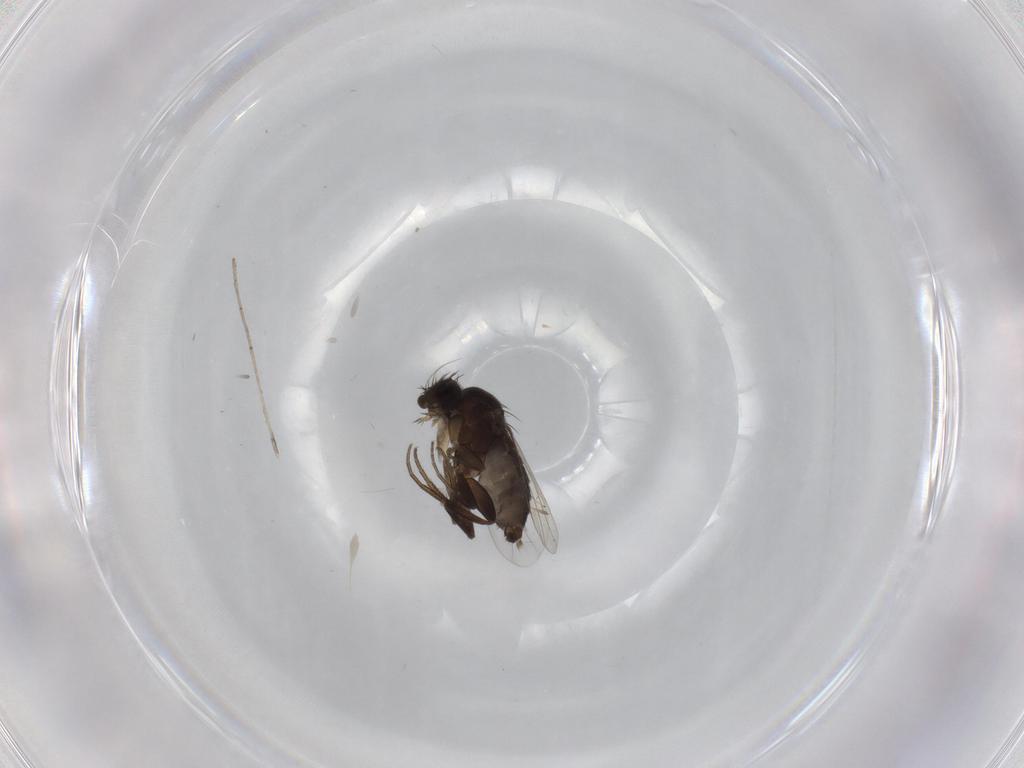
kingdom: Animalia
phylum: Arthropoda
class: Insecta
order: Diptera
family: Phoridae
